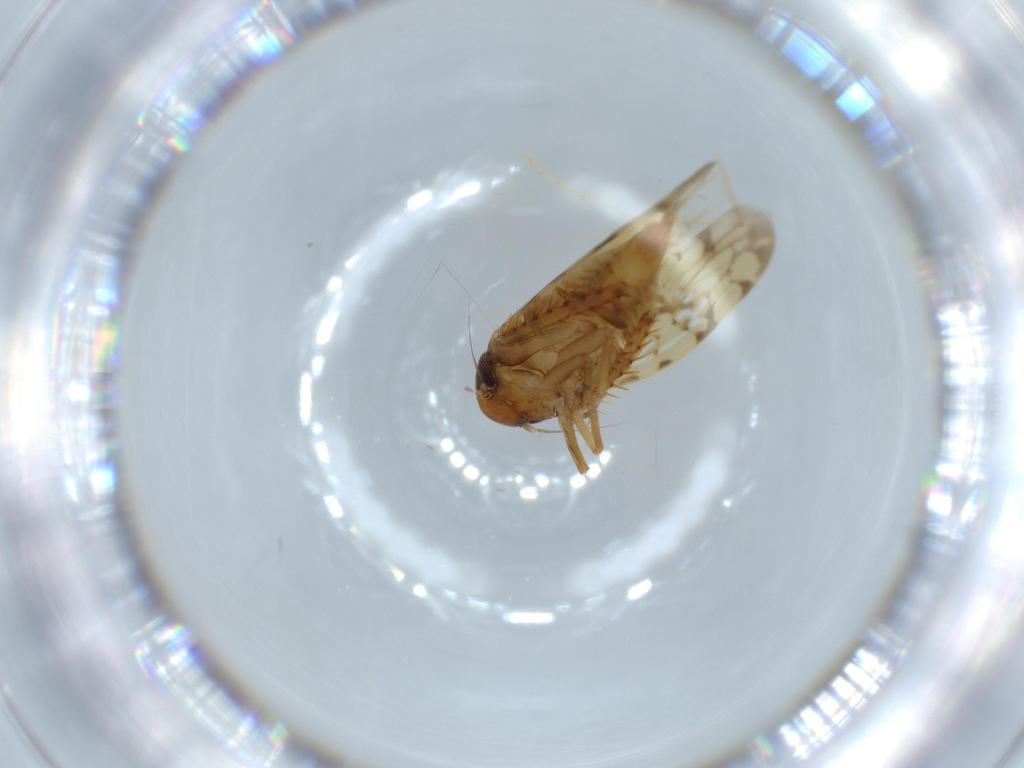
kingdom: Animalia
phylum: Arthropoda
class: Insecta
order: Hemiptera
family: Cicadellidae
